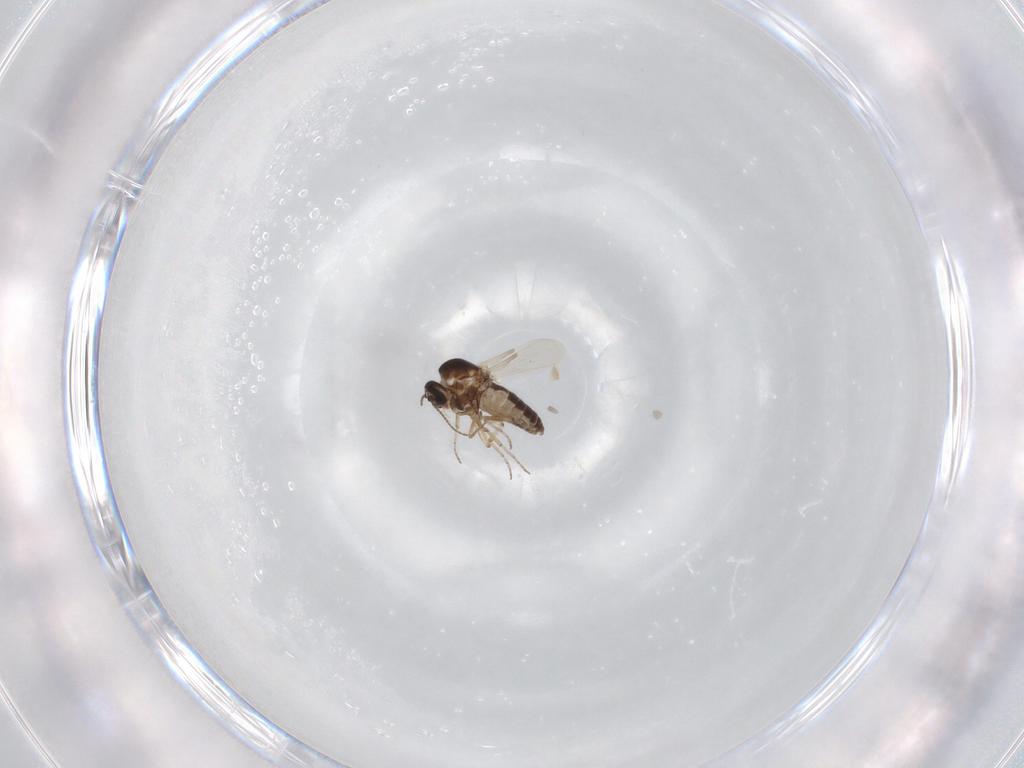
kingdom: Animalia
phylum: Arthropoda
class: Insecta
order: Diptera
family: Ceratopogonidae
